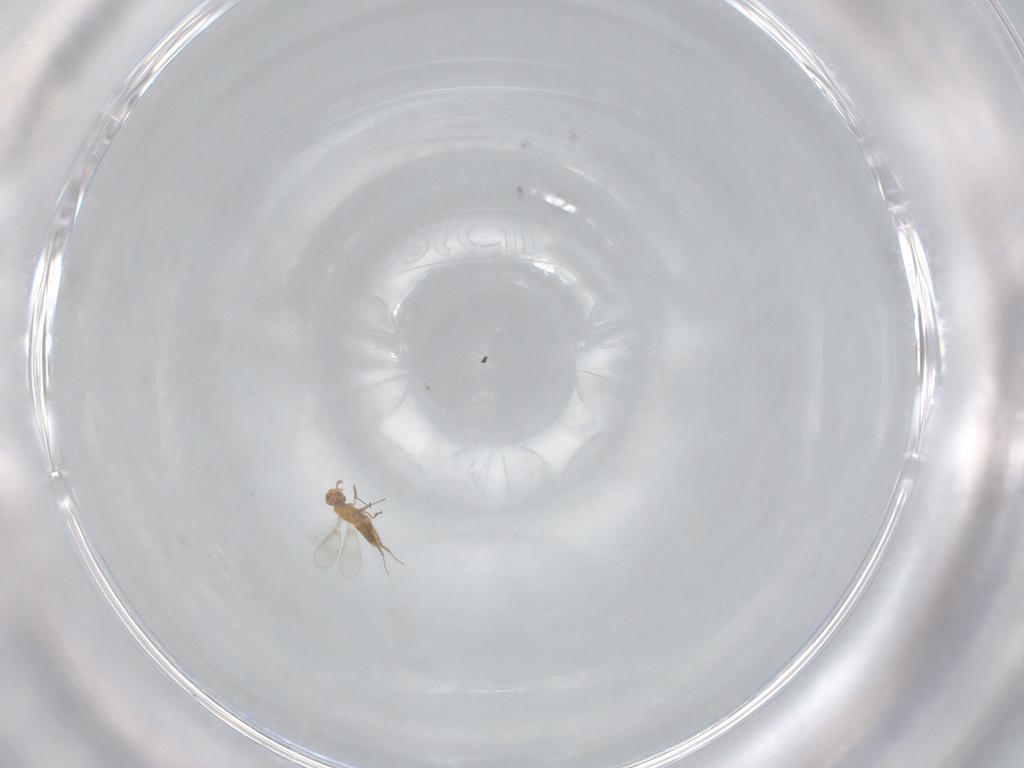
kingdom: Animalia
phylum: Arthropoda
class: Insecta
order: Hymenoptera
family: Aphelinidae
